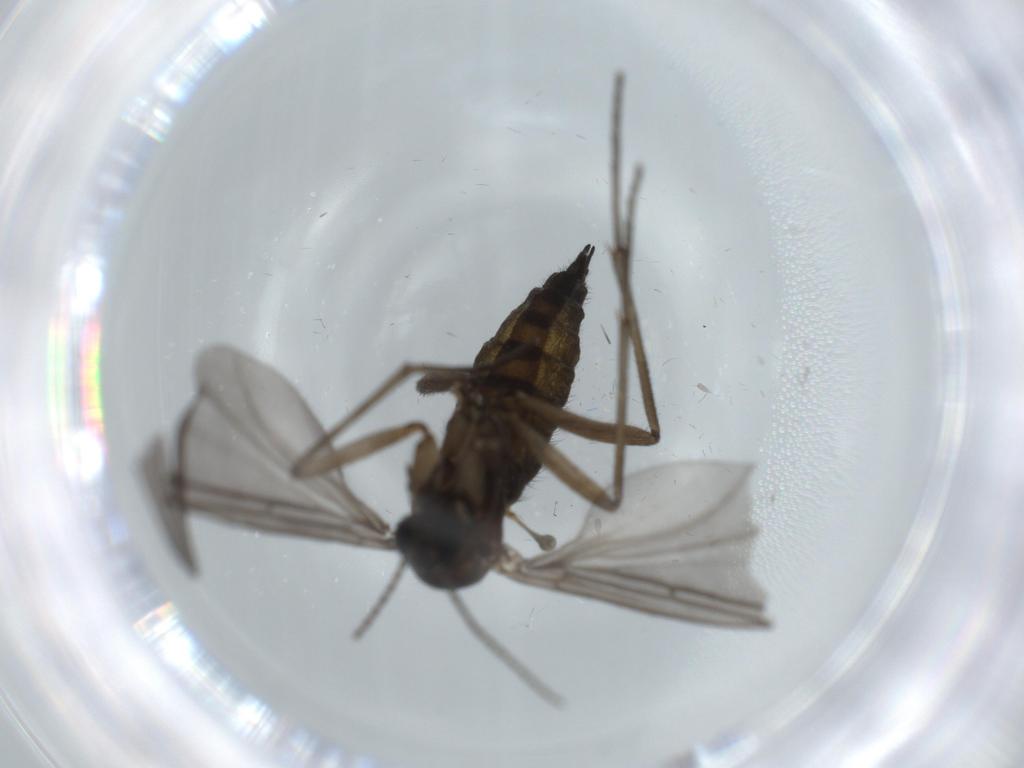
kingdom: Animalia
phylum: Arthropoda
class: Insecta
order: Diptera
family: Sciaridae
